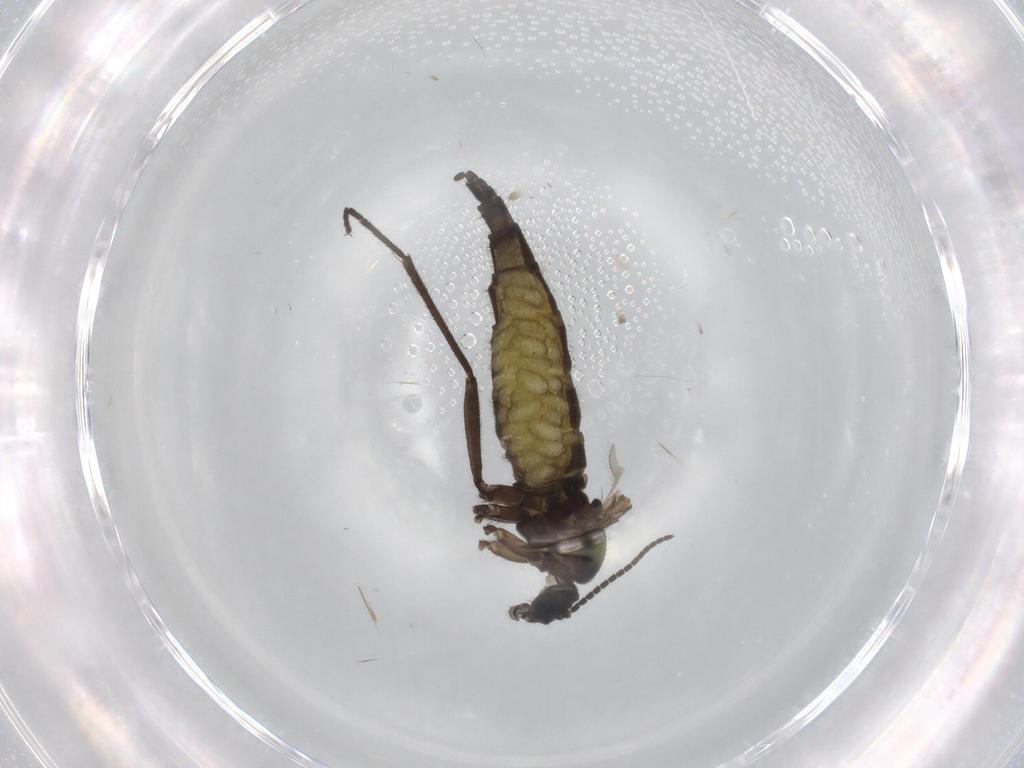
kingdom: Animalia
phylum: Arthropoda
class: Insecta
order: Diptera
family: Sciaridae
